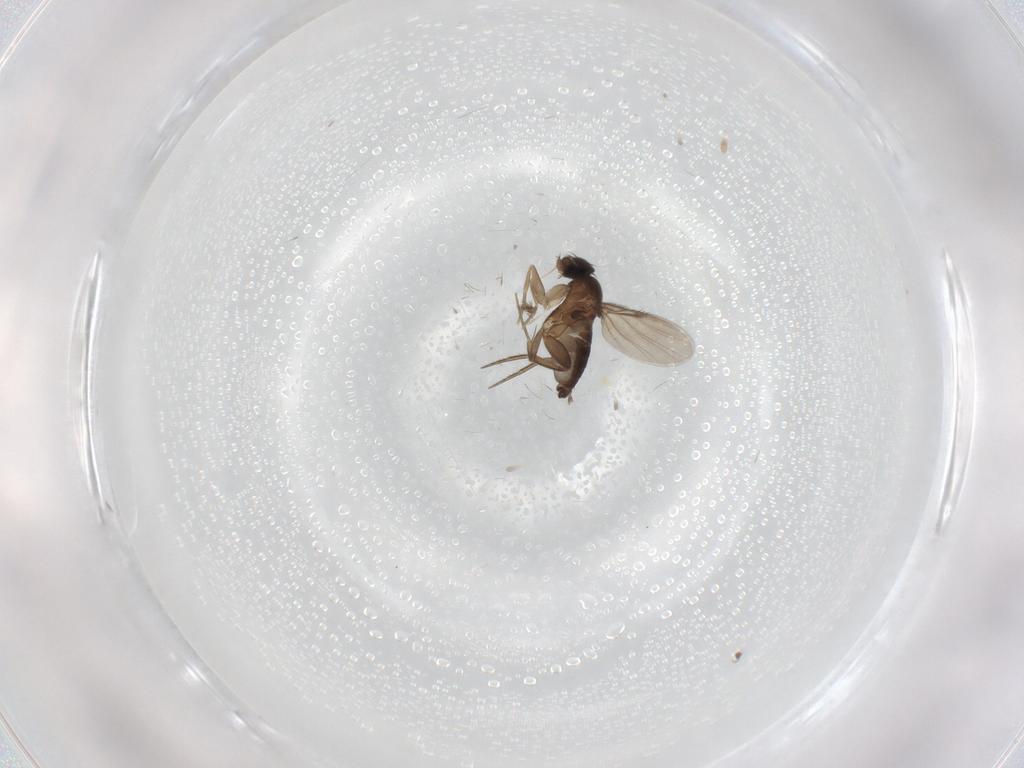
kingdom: Animalia
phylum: Arthropoda
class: Insecta
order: Diptera
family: Phoridae
